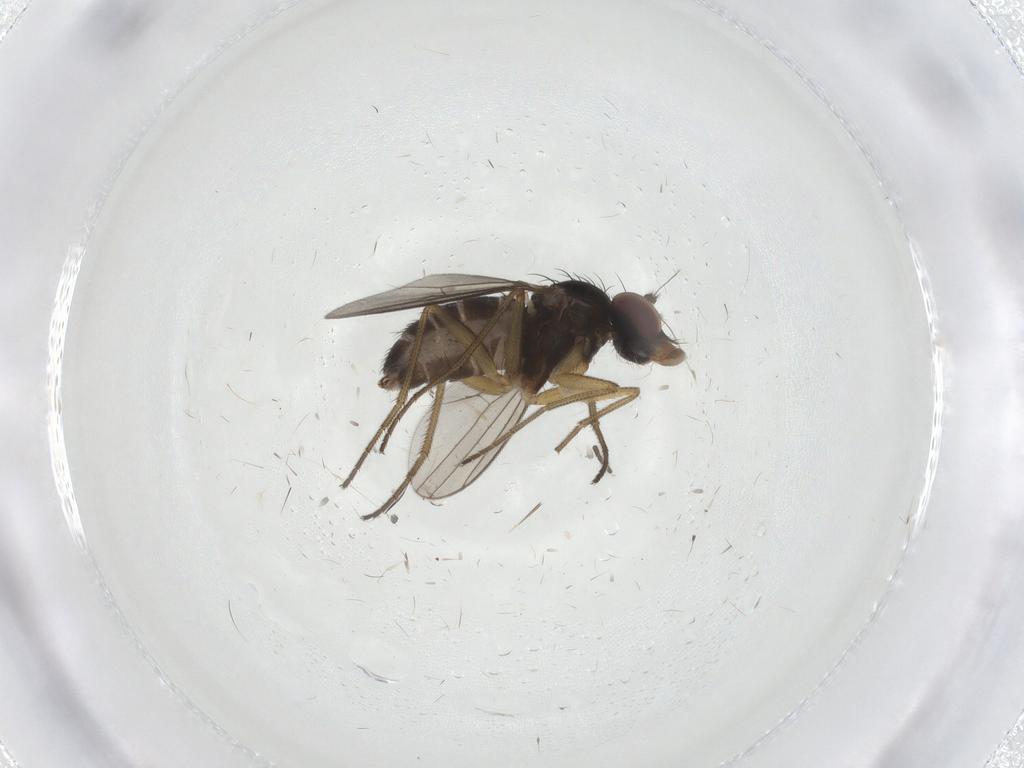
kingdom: Animalia
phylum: Arthropoda
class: Insecta
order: Diptera
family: Dolichopodidae
